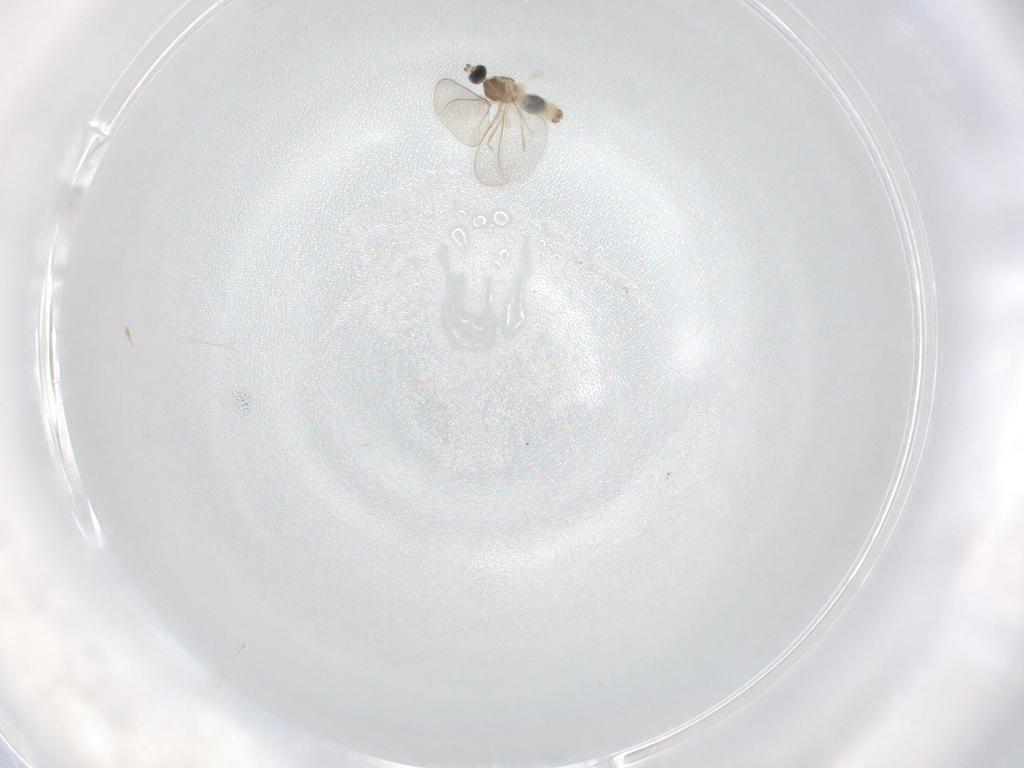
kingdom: Animalia
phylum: Arthropoda
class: Insecta
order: Diptera
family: Cecidomyiidae
